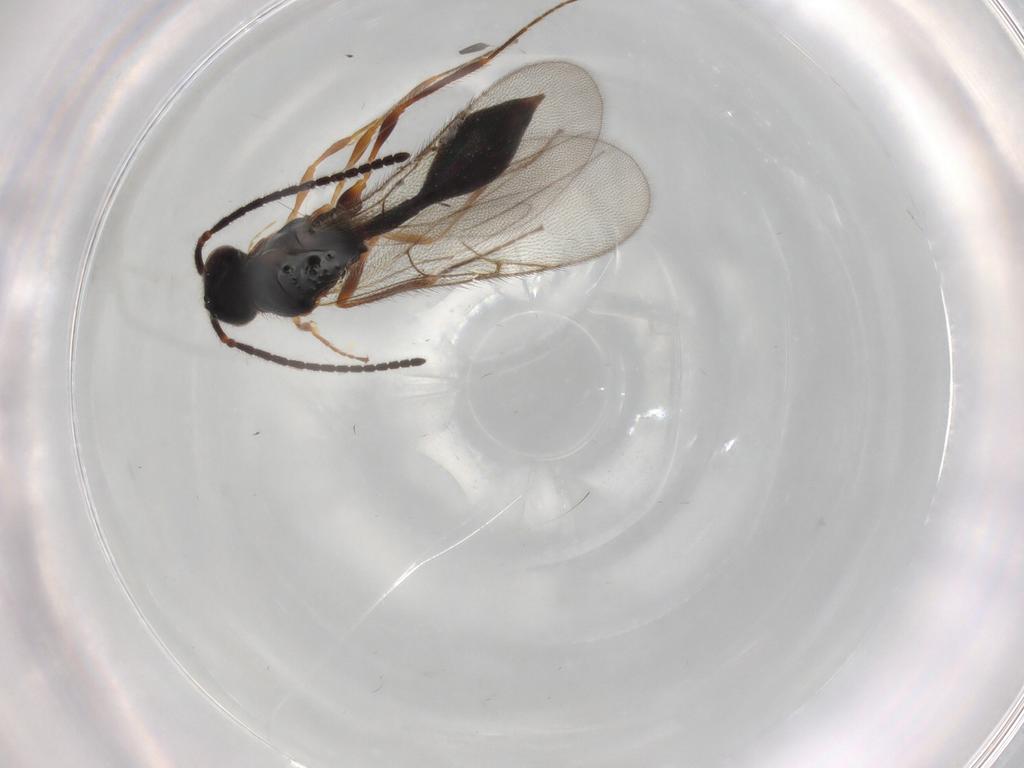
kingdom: Animalia
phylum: Arthropoda
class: Insecta
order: Hymenoptera
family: Diapriidae
